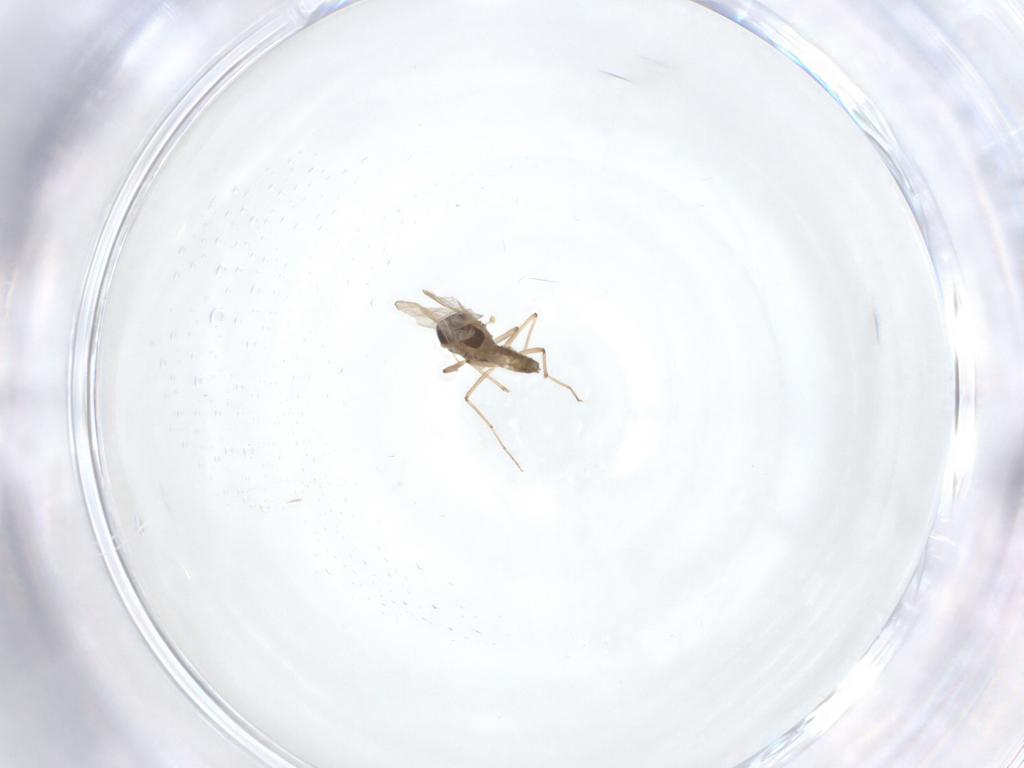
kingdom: Animalia
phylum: Arthropoda
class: Insecta
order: Diptera
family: Chironomidae
